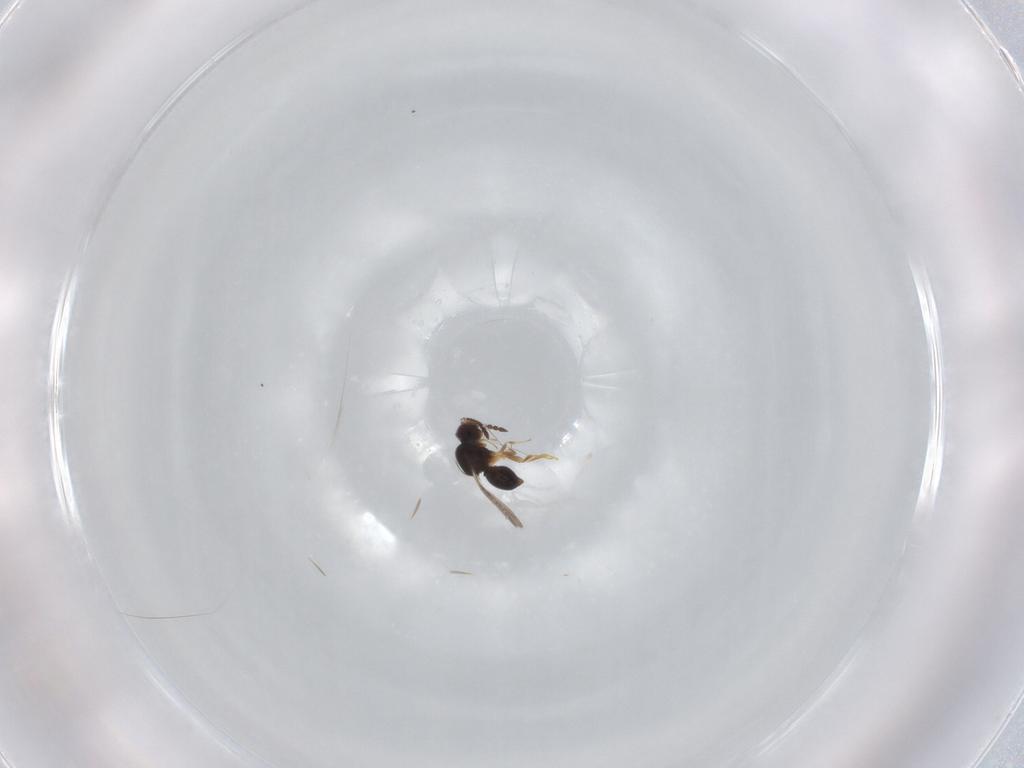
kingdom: Animalia
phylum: Arthropoda
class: Insecta
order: Hymenoptera
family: Ceraphronidae
